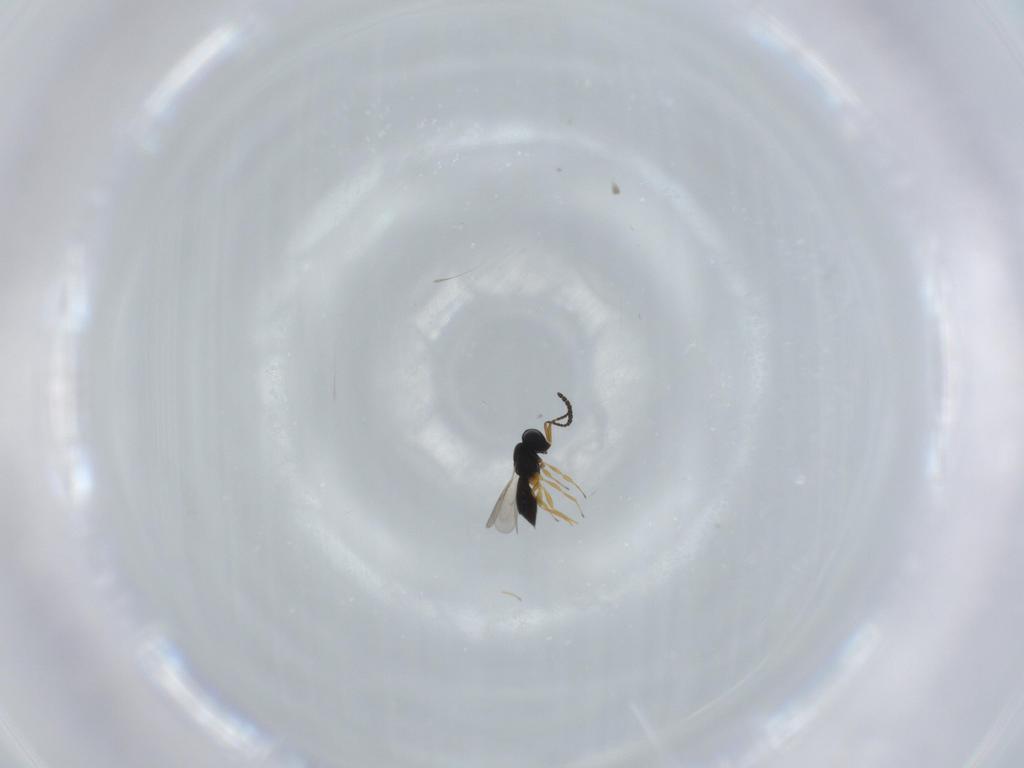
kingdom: Animalia
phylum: Arthropoda
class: Insecta
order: Hymenoptera
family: Scelionidae
